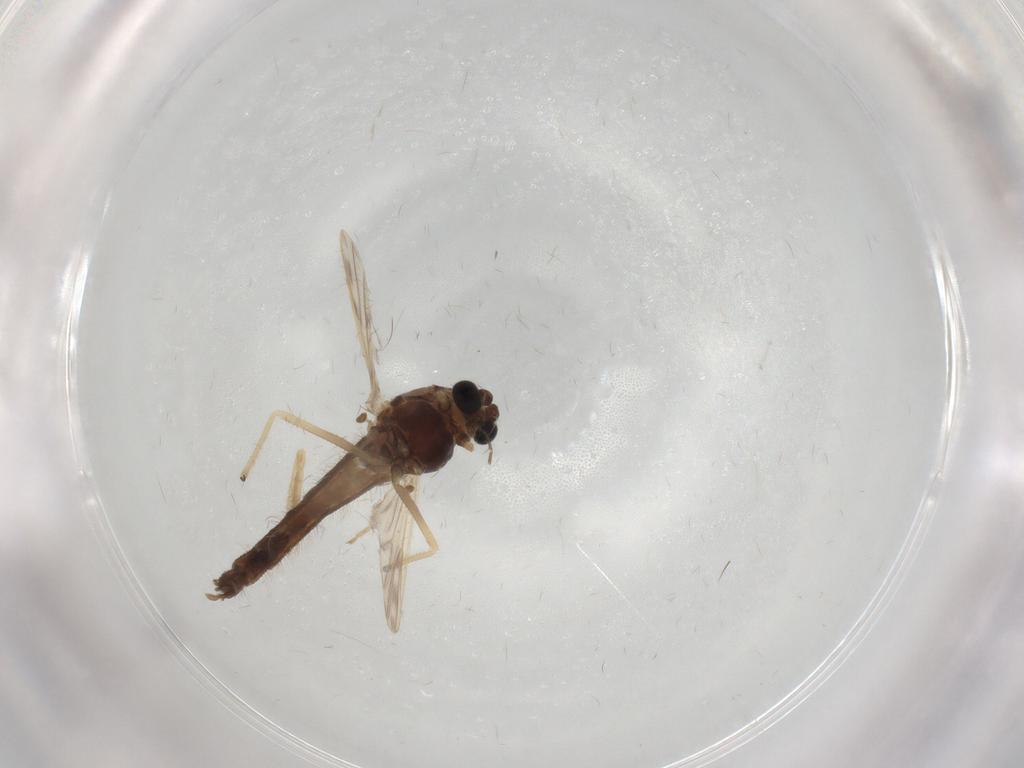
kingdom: Animalia
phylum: Arthropoda
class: Insecta
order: Diptera
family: Chironomidae
